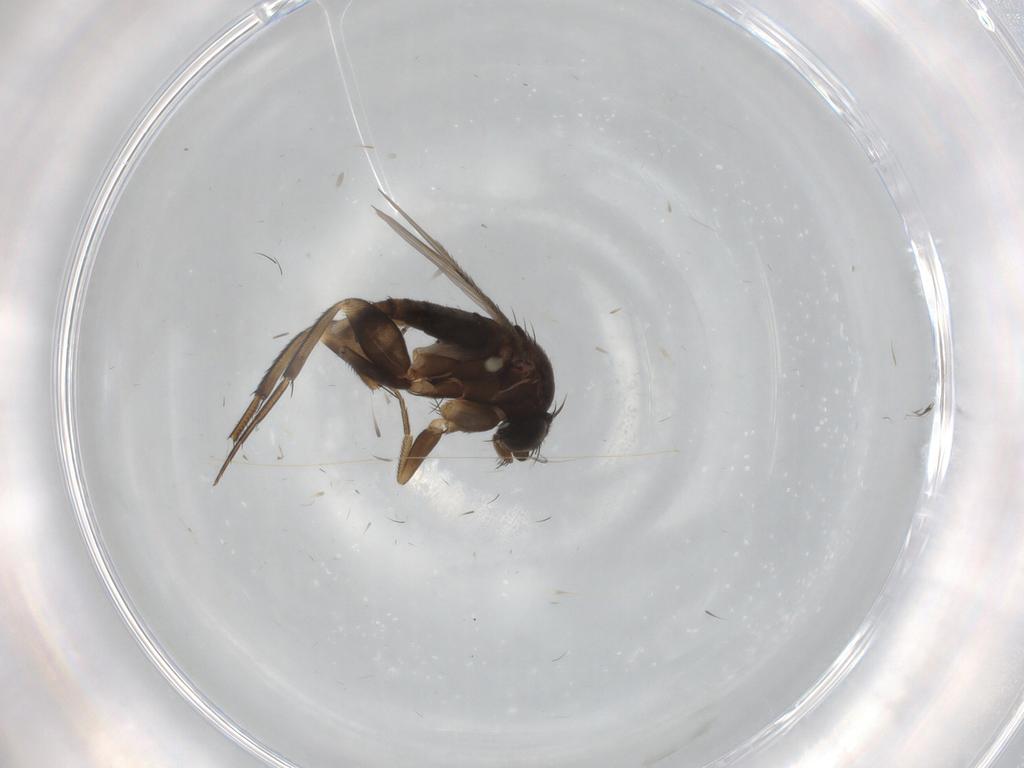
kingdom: Animalia
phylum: Arthropoda
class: Insecta
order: Diptera
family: Phoridae
